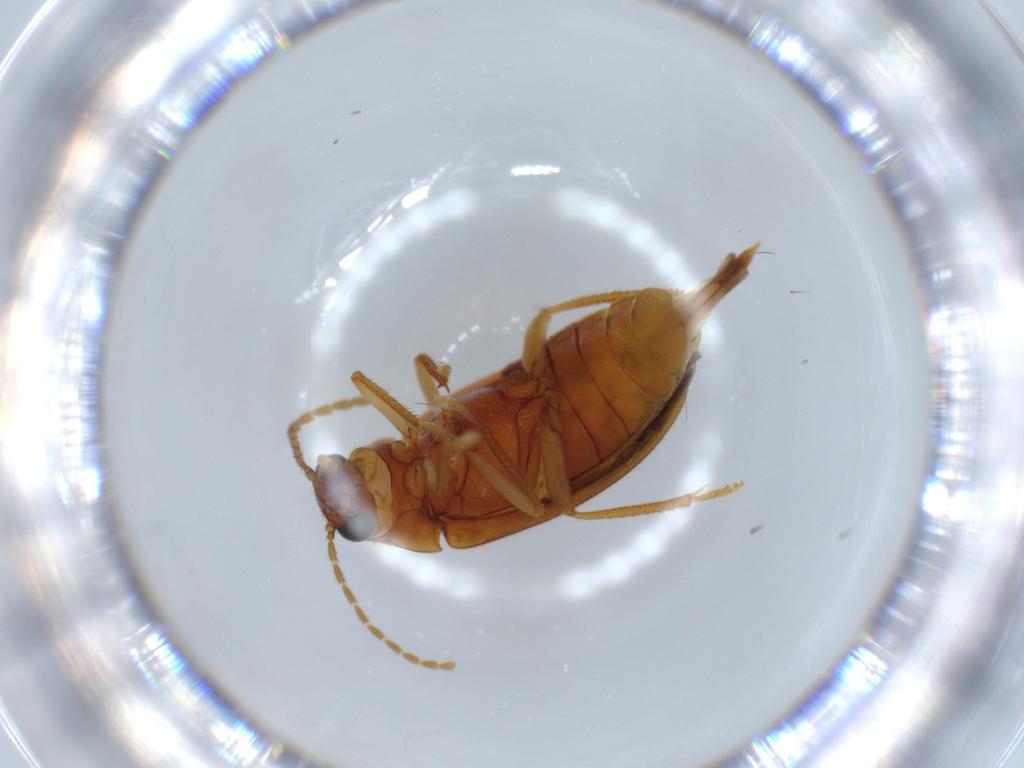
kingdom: Animalia
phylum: Arthropoda
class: Insecta
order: Coleoptera
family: Ptilodactylidae
